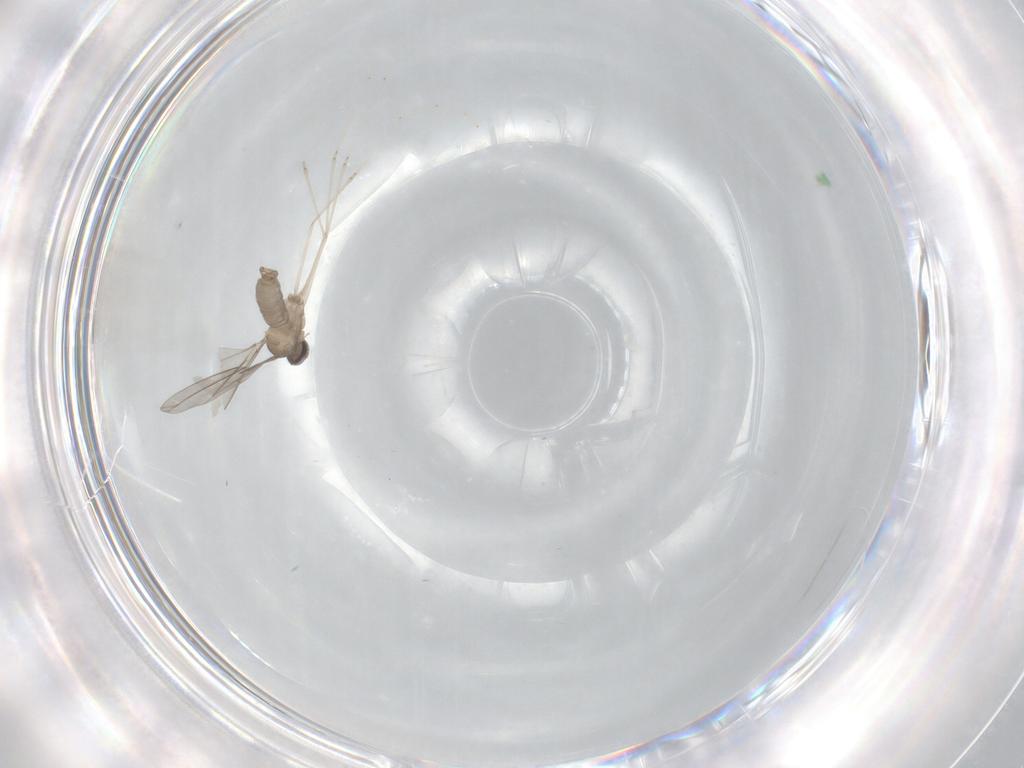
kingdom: Animalia
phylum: Arthropoda
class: Insecta
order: Diptera
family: Cecidomyiidae
